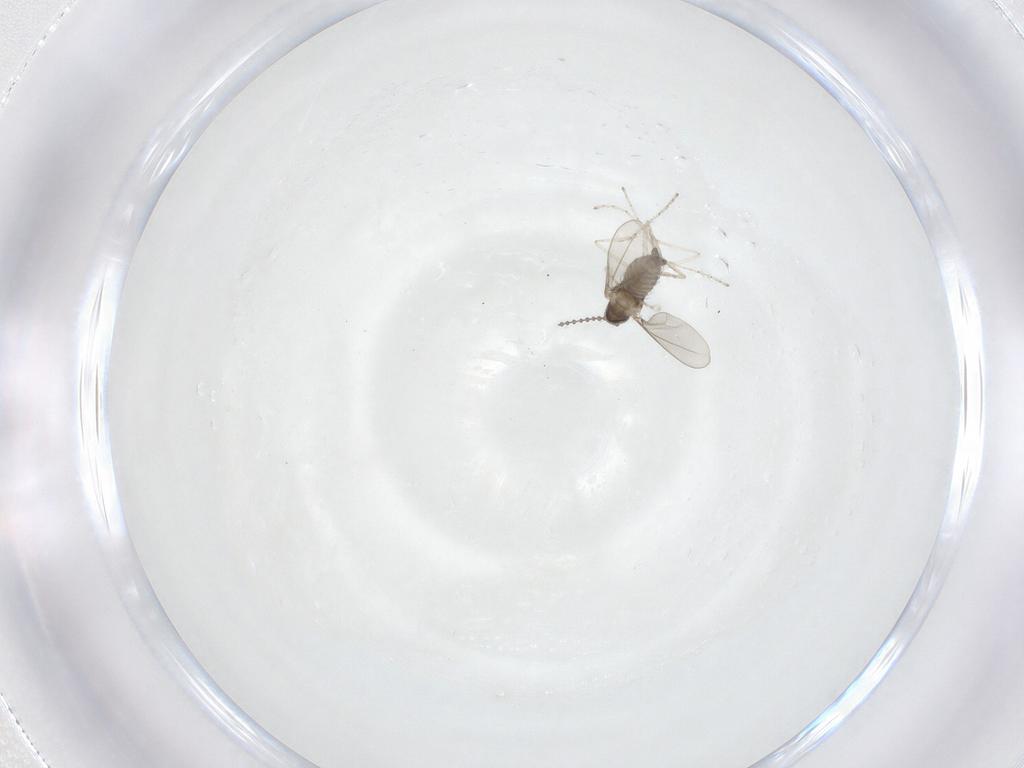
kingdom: Animalia
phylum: Arthropoda
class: Insecta
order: Diptera
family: Cecidomyiidae
